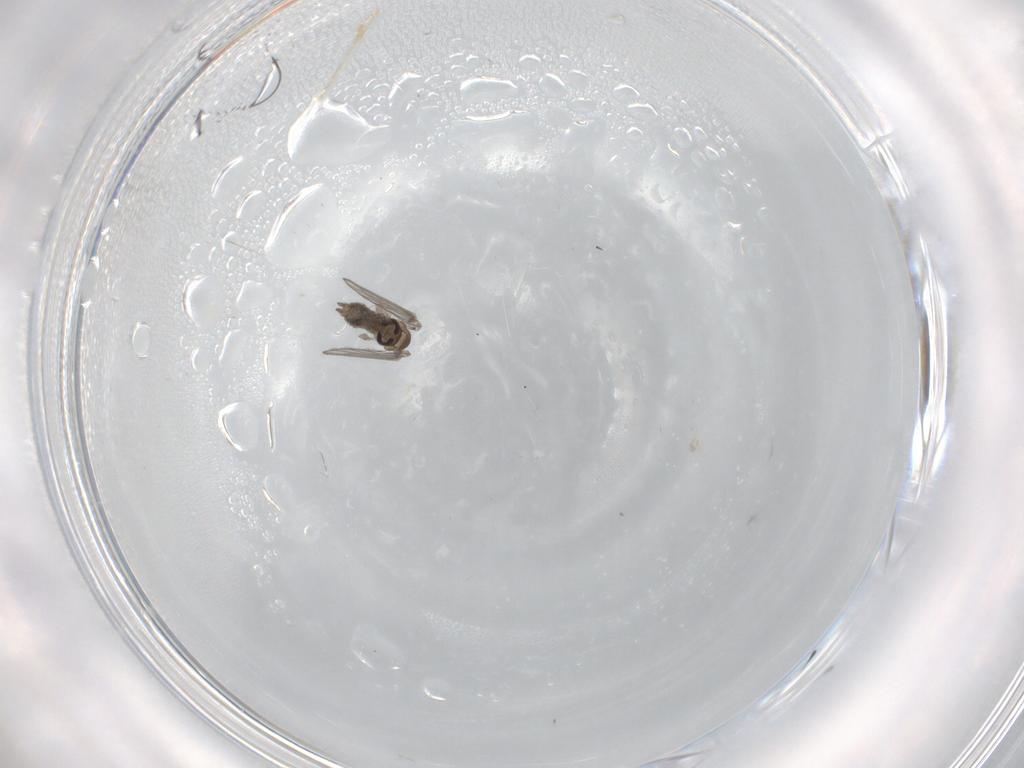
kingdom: Animalia
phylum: Arthropoda
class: Insecta
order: Diptera
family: Psychodidae
